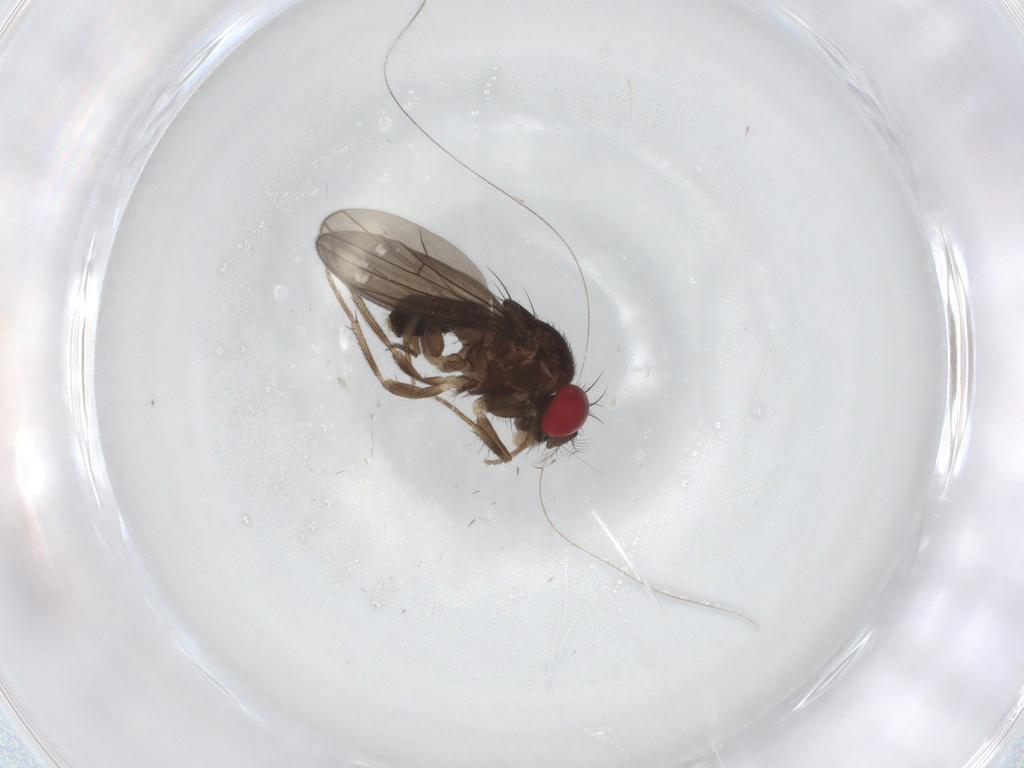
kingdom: Animalia
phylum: Arthropoda
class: Insecta
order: Diptera
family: Drosophilidae
